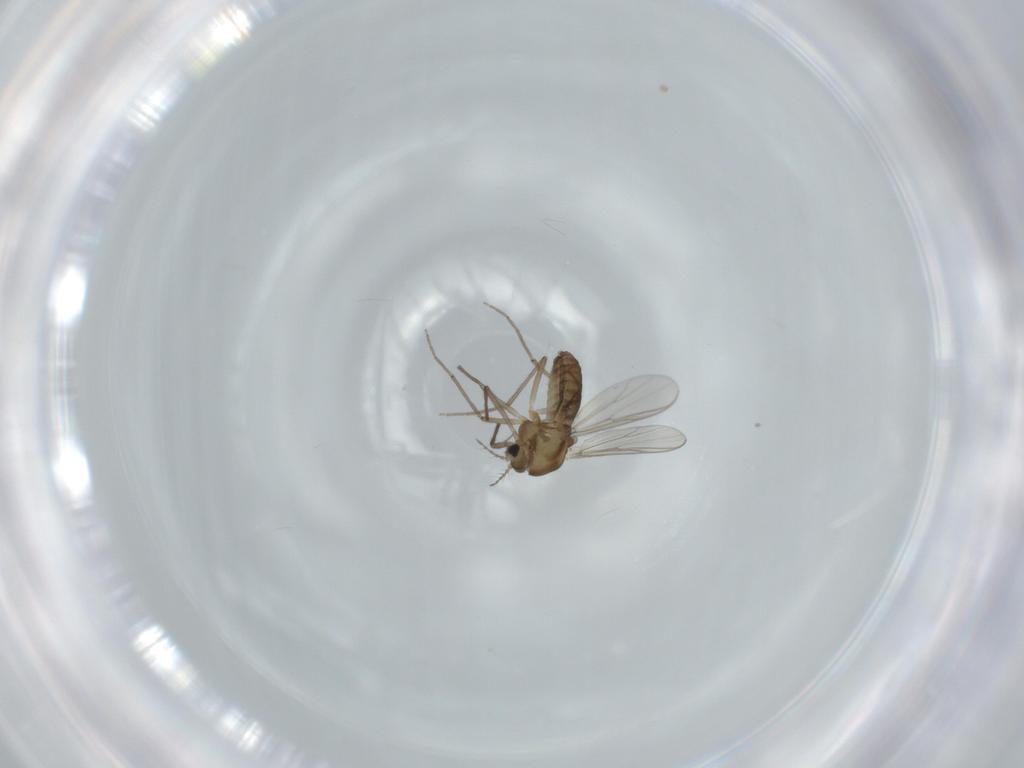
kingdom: Animalia
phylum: Arthropoda
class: Insecta
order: Diptera
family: Chironomidae
